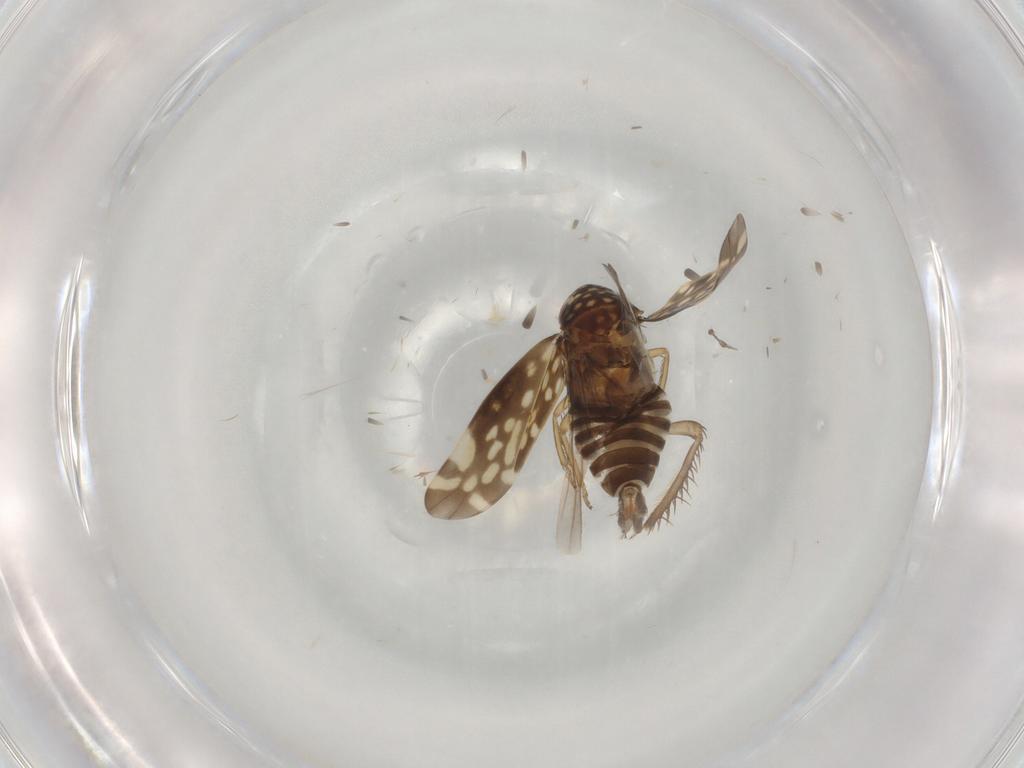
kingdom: Animalia
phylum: Arthropoda
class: Insecta
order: Hemiptera
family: Cicadellidae
